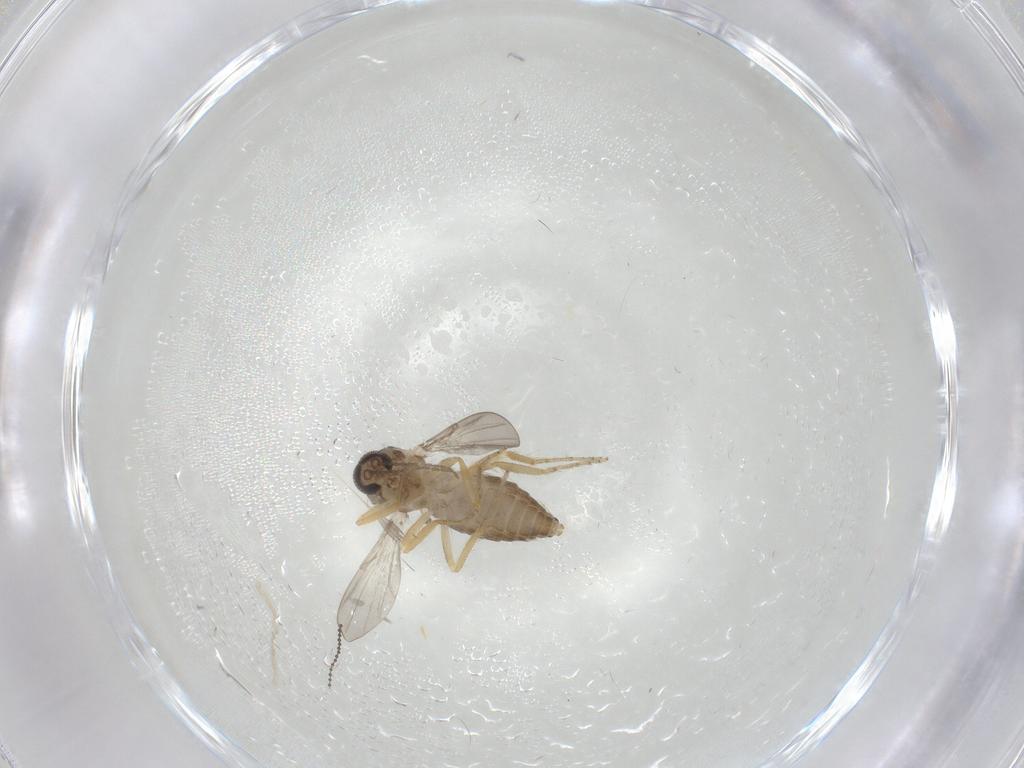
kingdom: Animalia
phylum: Arthropoda
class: Insecta
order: Diptera
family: Ceratopogonidae
